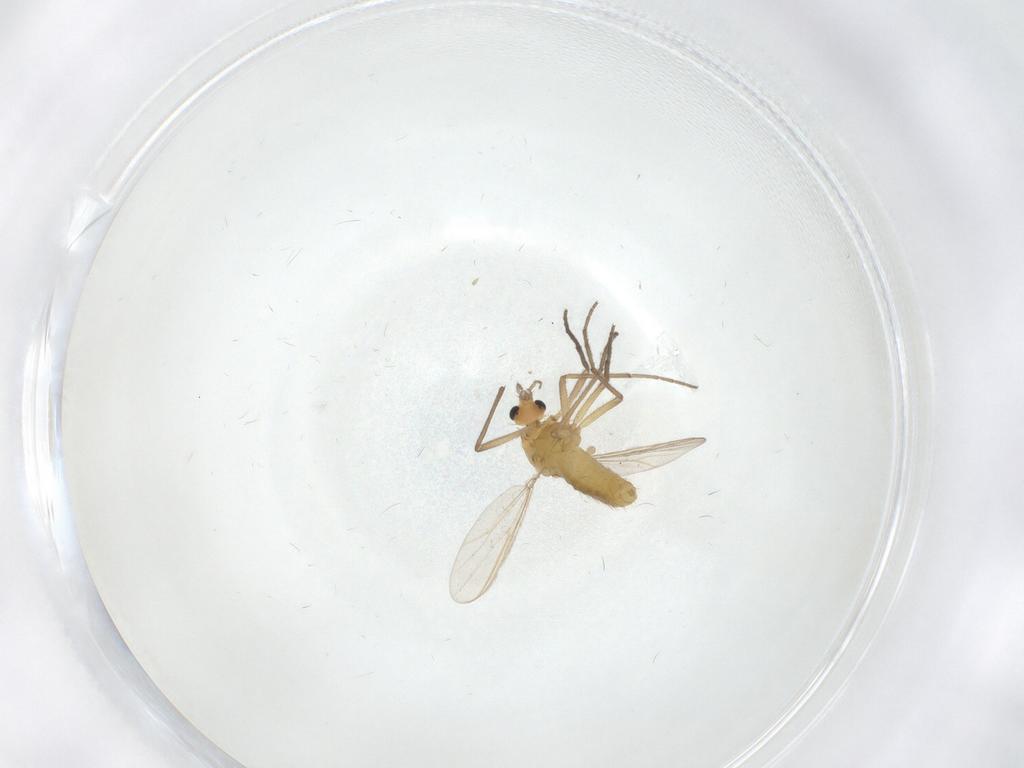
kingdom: Animalia
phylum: Arthropoda
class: Insecta
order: Diptera
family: Chironomidae
